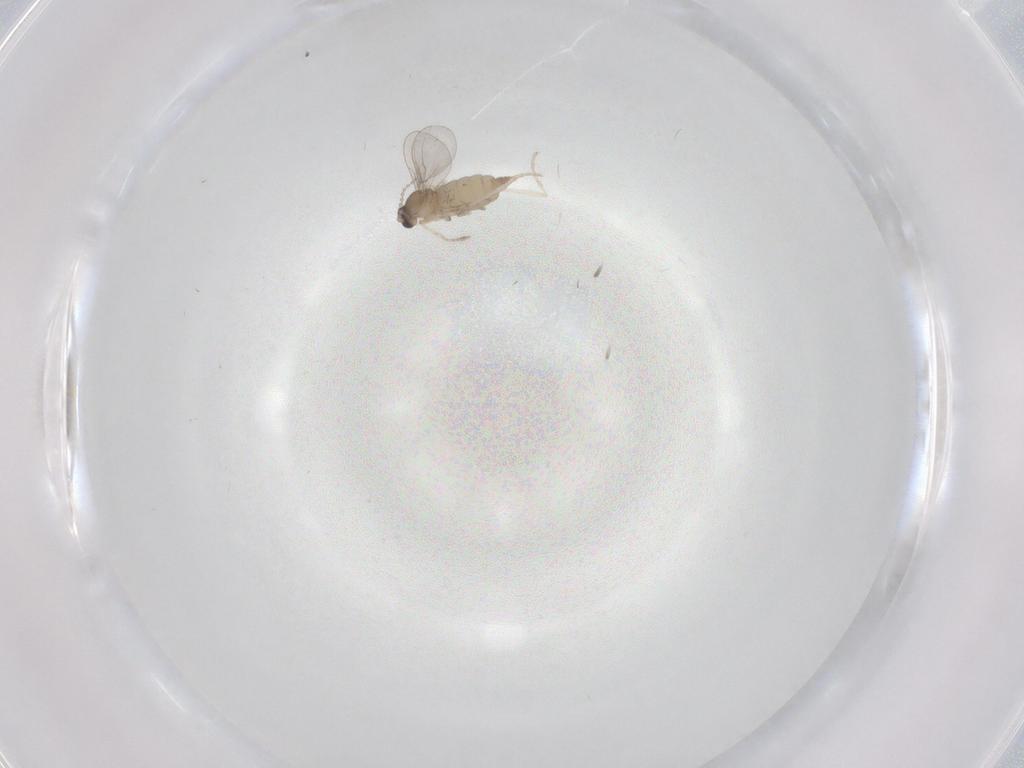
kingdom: Animalia
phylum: Arthropoda
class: Insecta
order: Diptera
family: Cecidomyiidae
